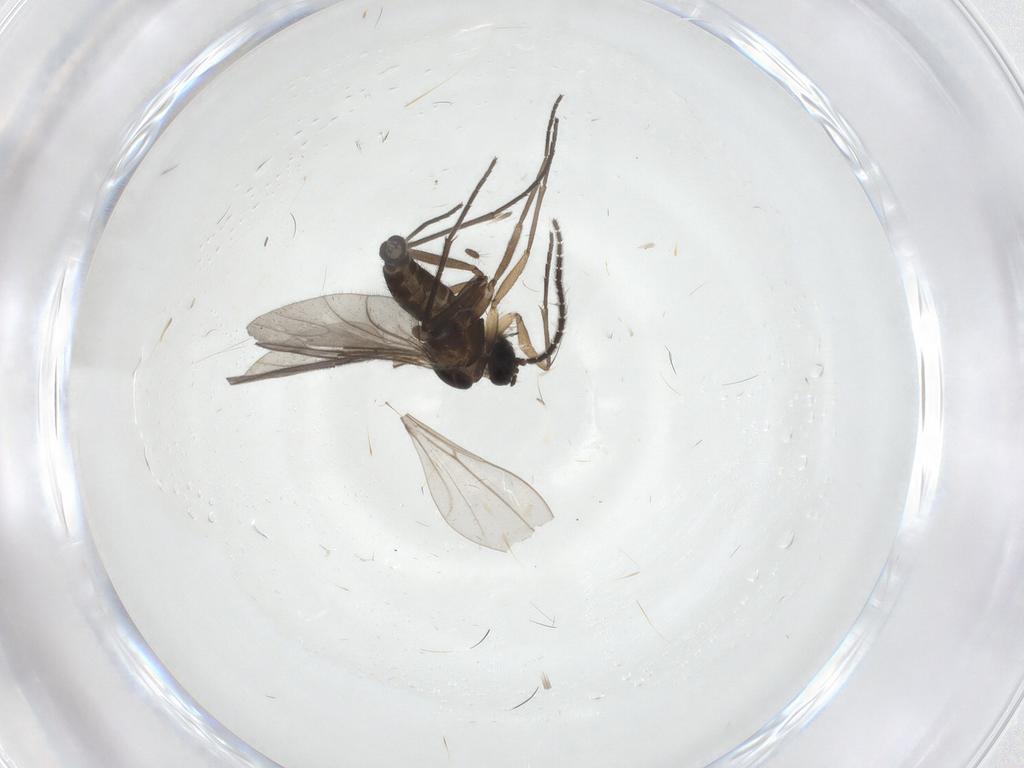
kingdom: Animalia
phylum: Arthropoda
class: Insecta
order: Diptera
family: Sciaridae
